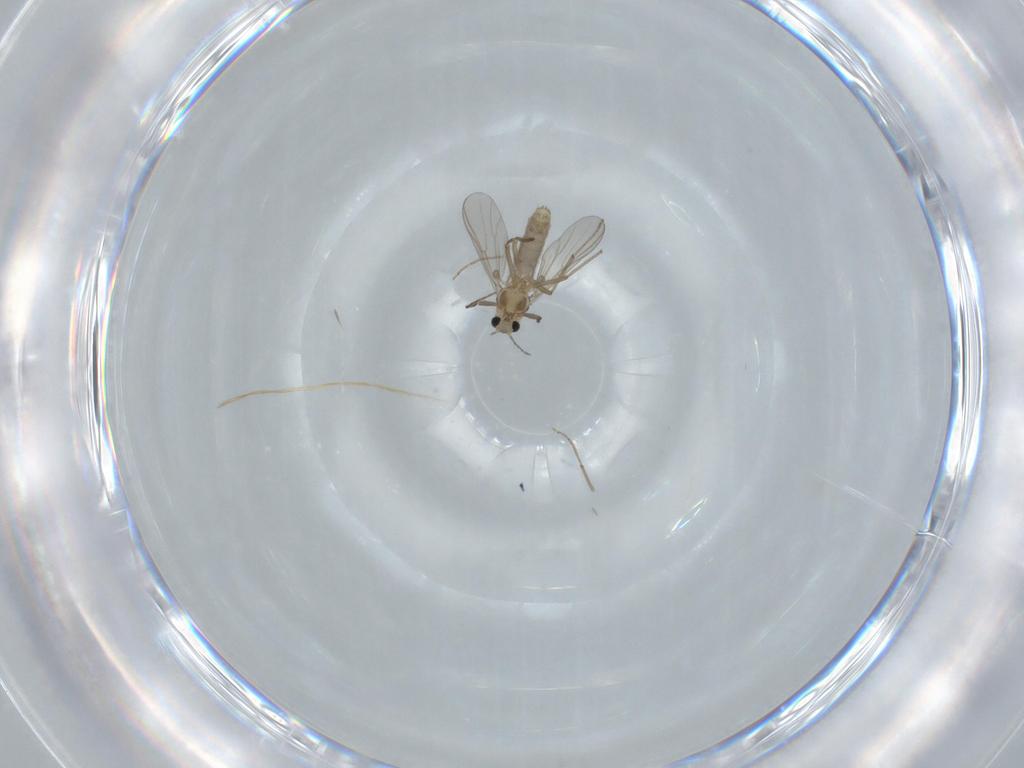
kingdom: Animalia
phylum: Arthropoda
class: Insecta
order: Diptera
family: Chironomidae
